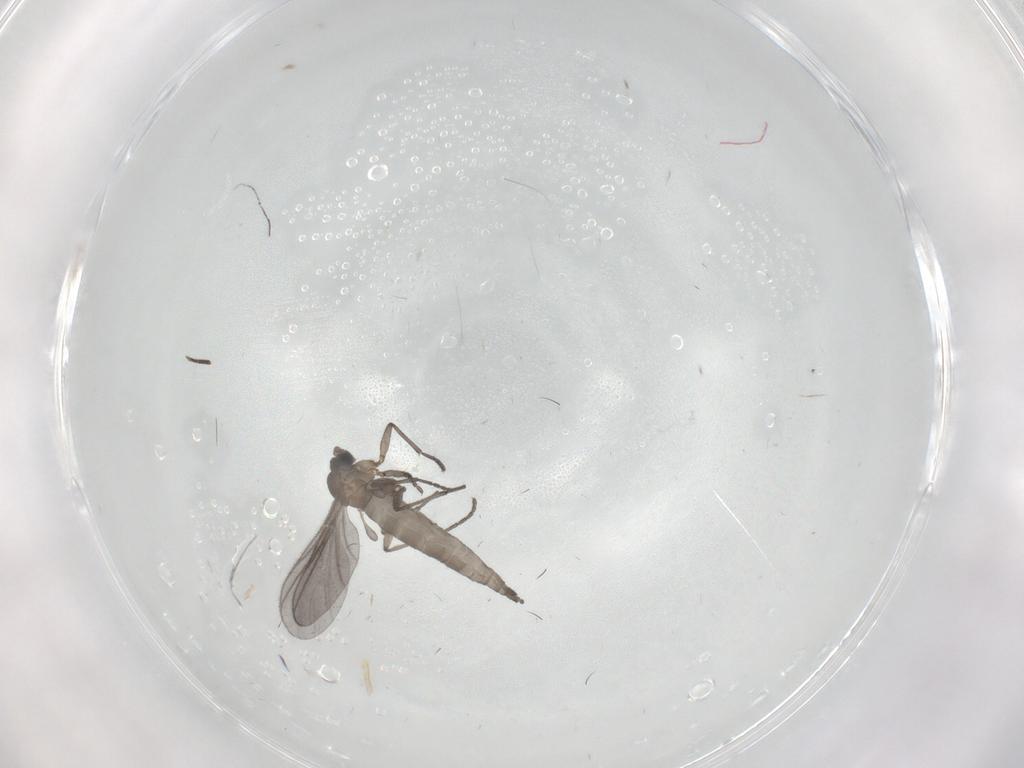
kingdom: Animalia
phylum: Arthropoda
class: Insecta
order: Diptera
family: Sciaridae
